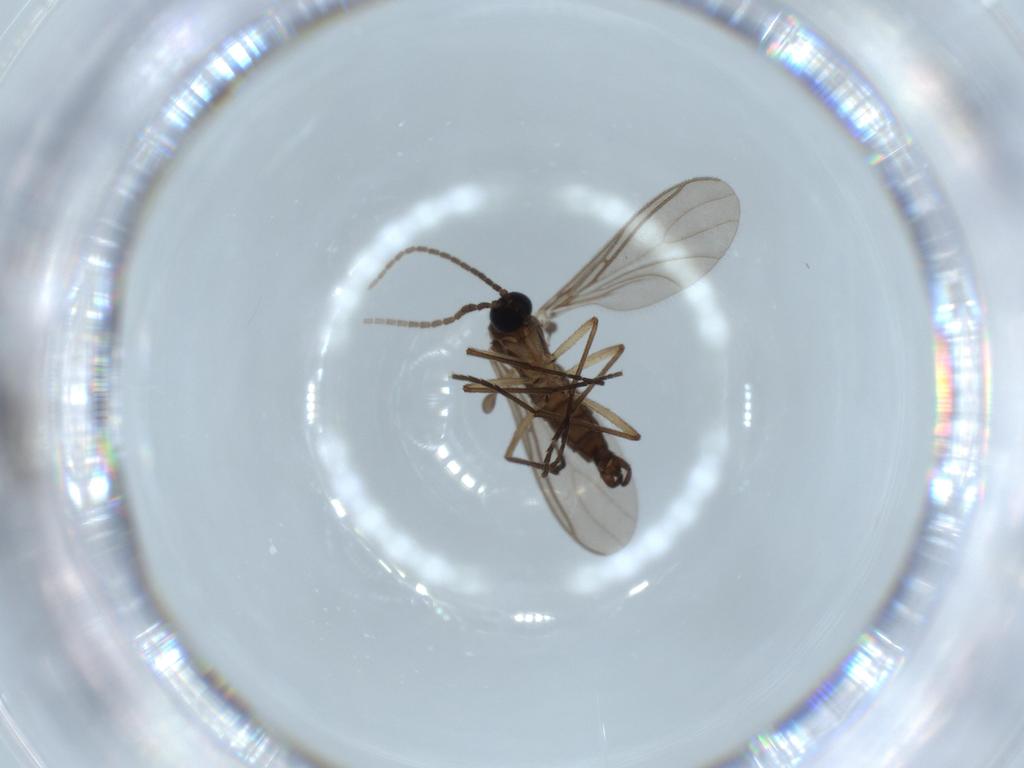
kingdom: Animalia
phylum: Arthropoda
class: Insecta
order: Diptera
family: Sciaridae
